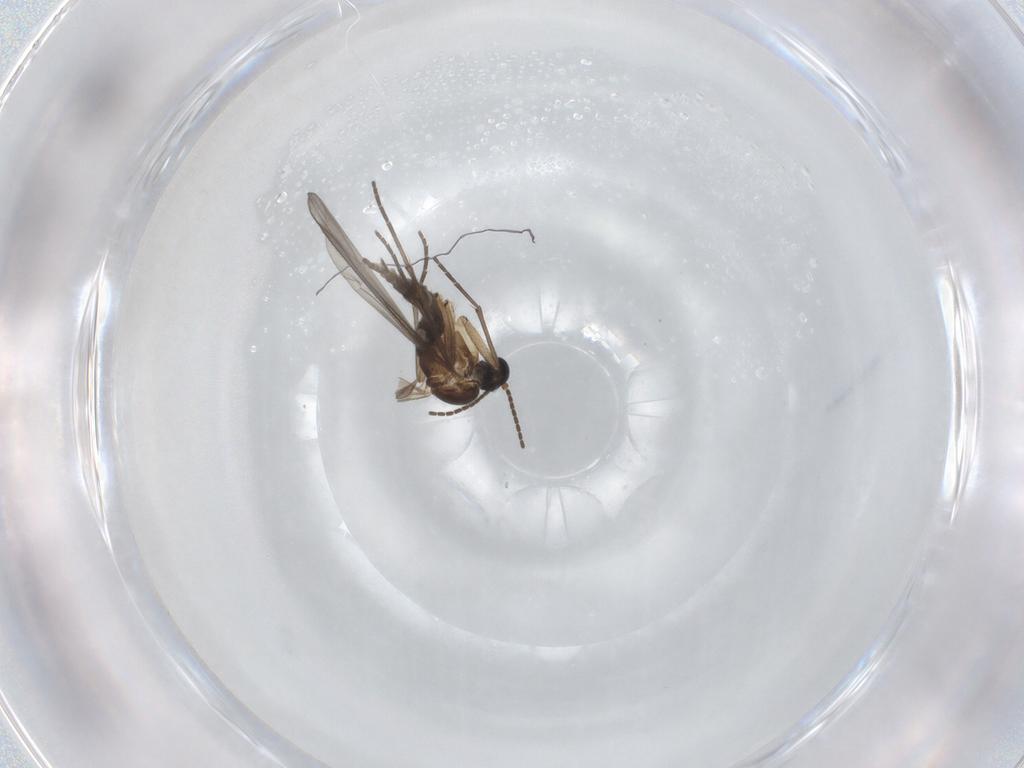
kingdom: Animalia
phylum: Arthropoda
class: Insecta
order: Diptera
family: Sciaridae
